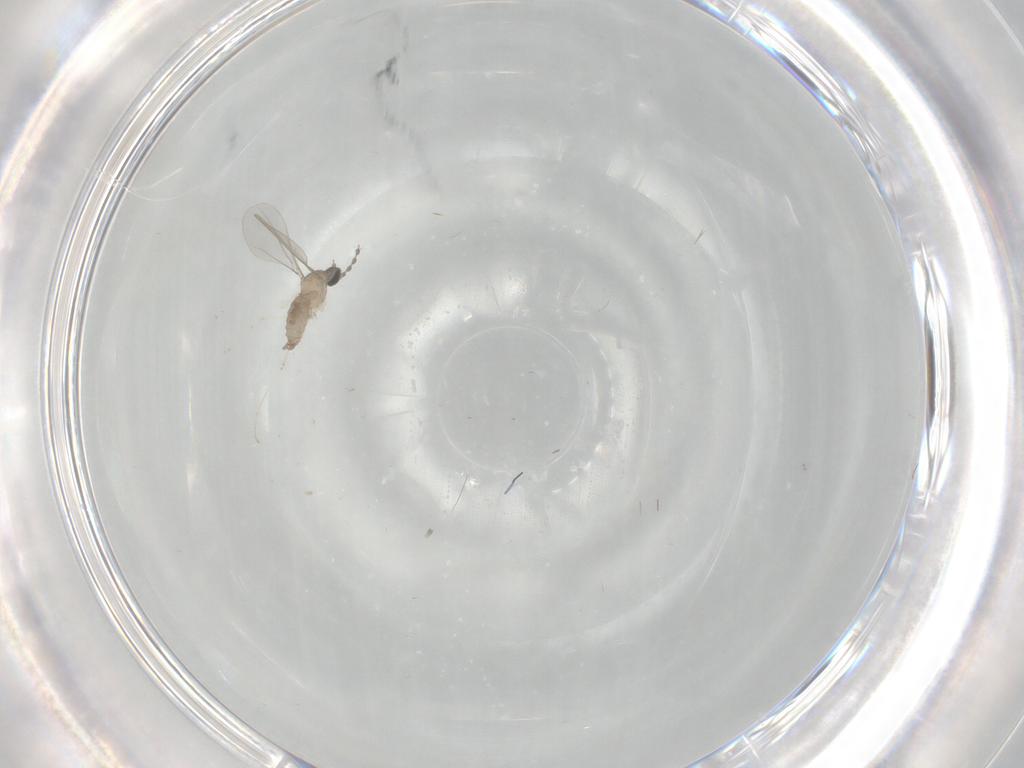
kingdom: Animalia
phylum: Arthropoda
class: Insecta
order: Diptera
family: Cecidomyiidae
